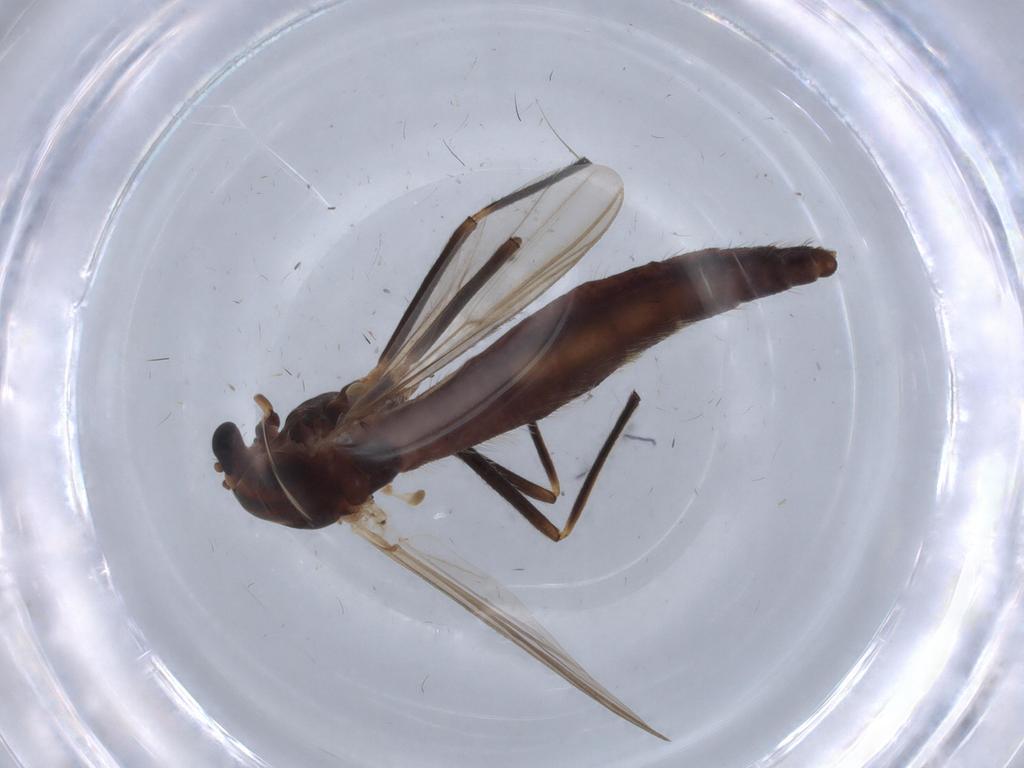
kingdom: Animalia
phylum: Arthropoda
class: Insecta
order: Diptera
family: Chironomidae
